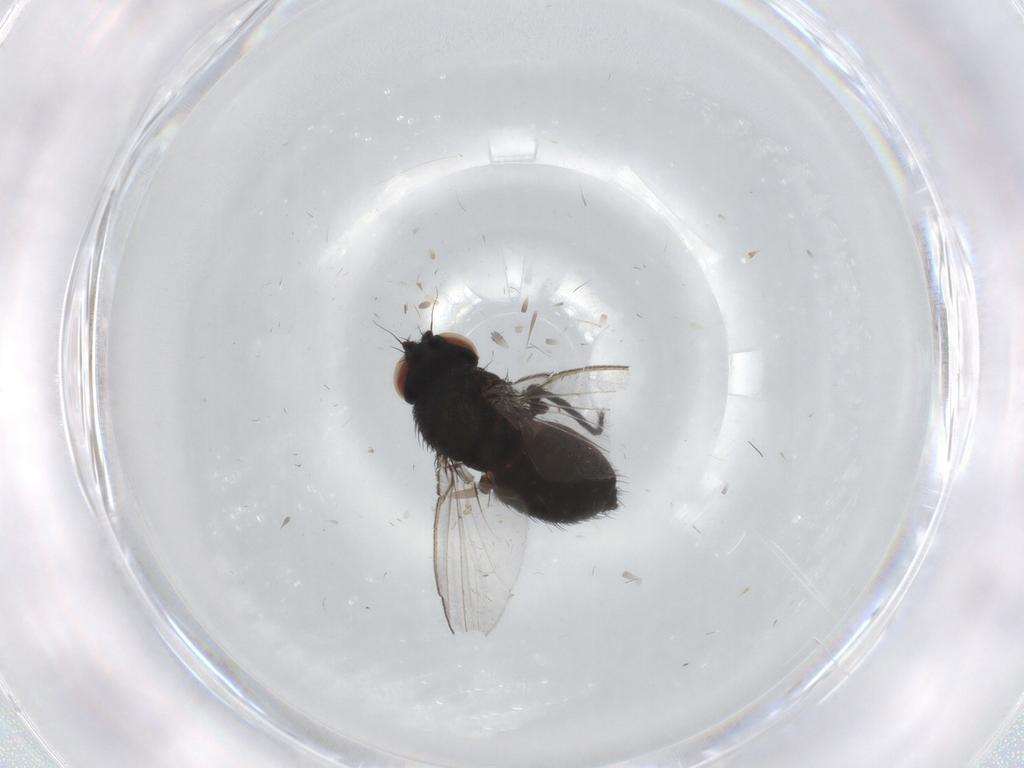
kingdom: Animalia
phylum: Arthropoda
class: Insecta
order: Diptera
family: Milichiidae
